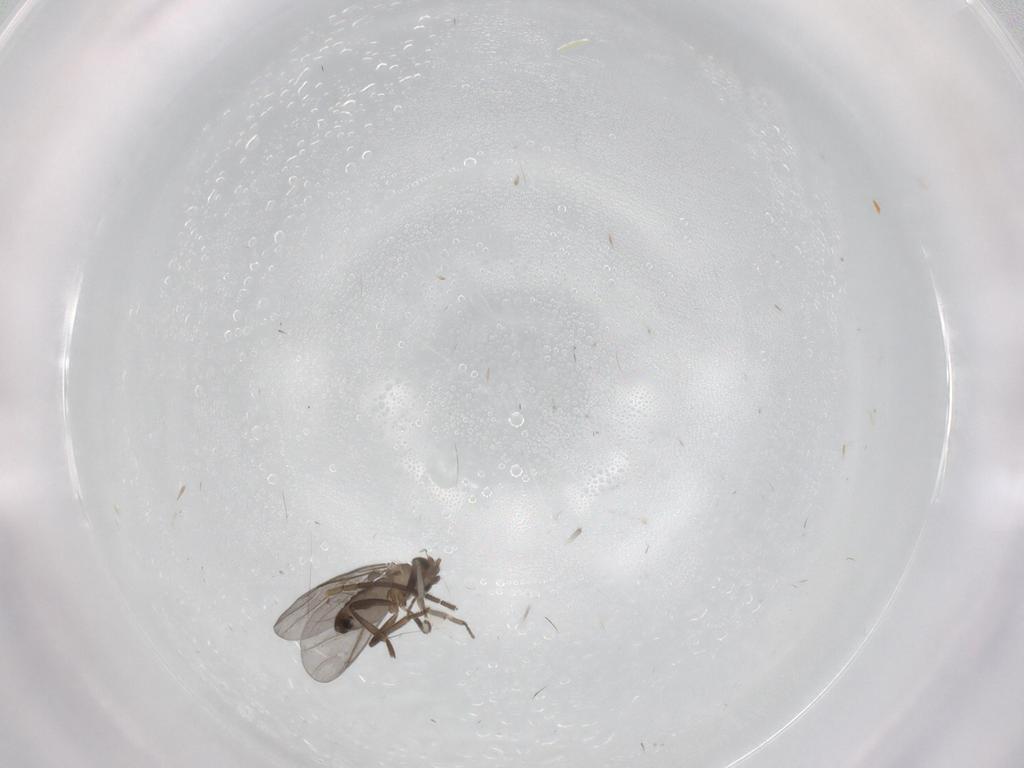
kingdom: Animalia
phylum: Arthropoda
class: Insecta
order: Diptera
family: Sciaridae
